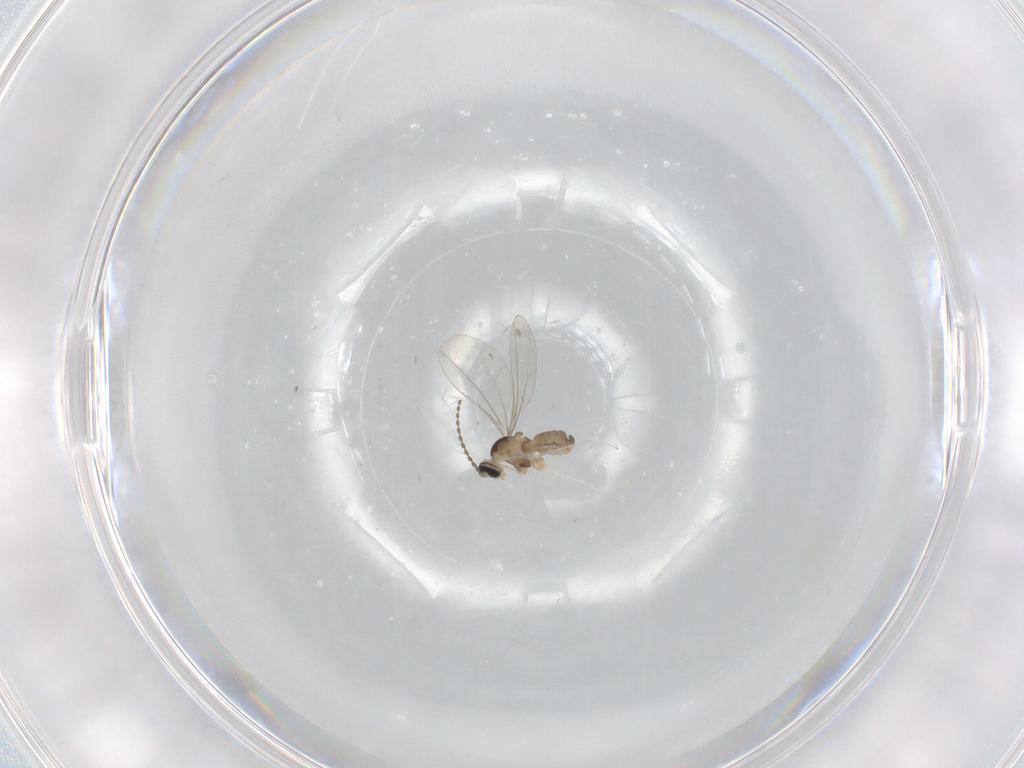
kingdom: Animalia
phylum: Arthropoda
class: Insecta
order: Diptera
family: Cecidomyiidae
